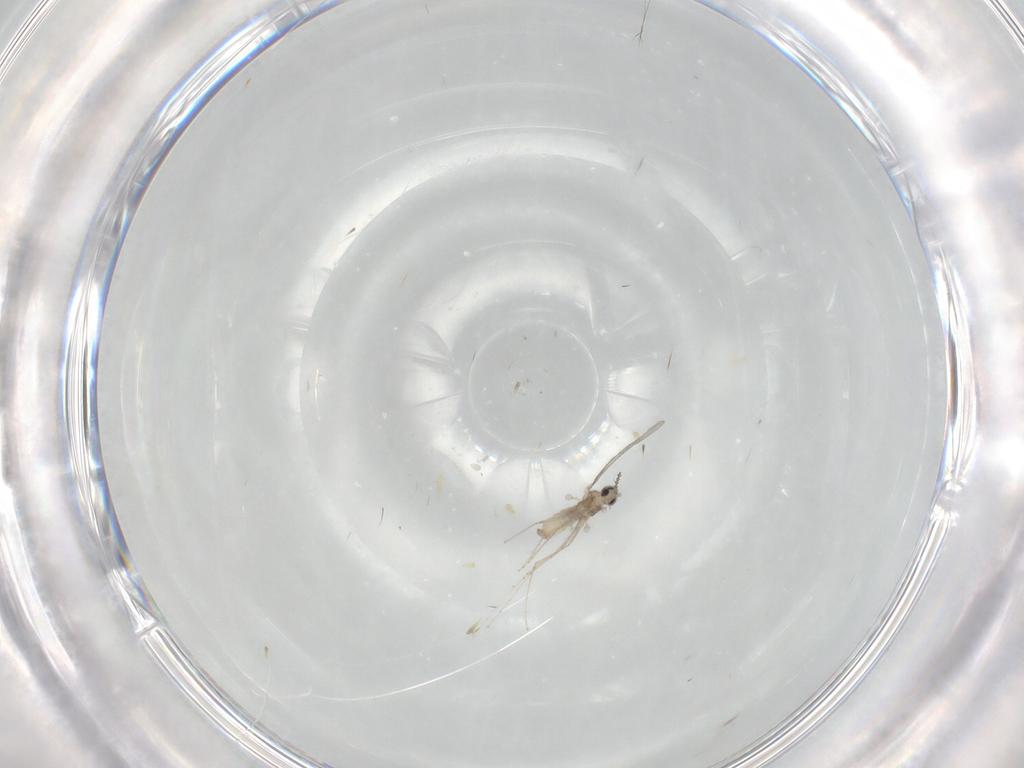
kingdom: Animalia
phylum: Arthropoda
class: Insecta
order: Diptera
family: Cecidomyiidae
